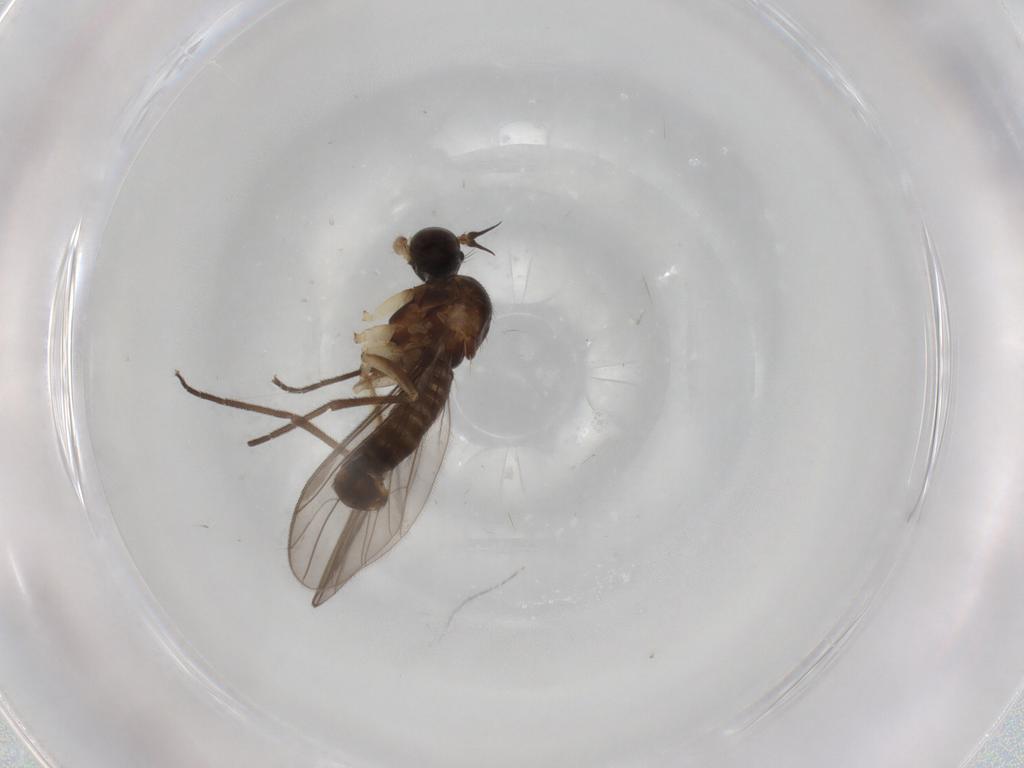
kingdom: Animalia
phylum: Arthropoda
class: Insecta
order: Diptera
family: Empididae
